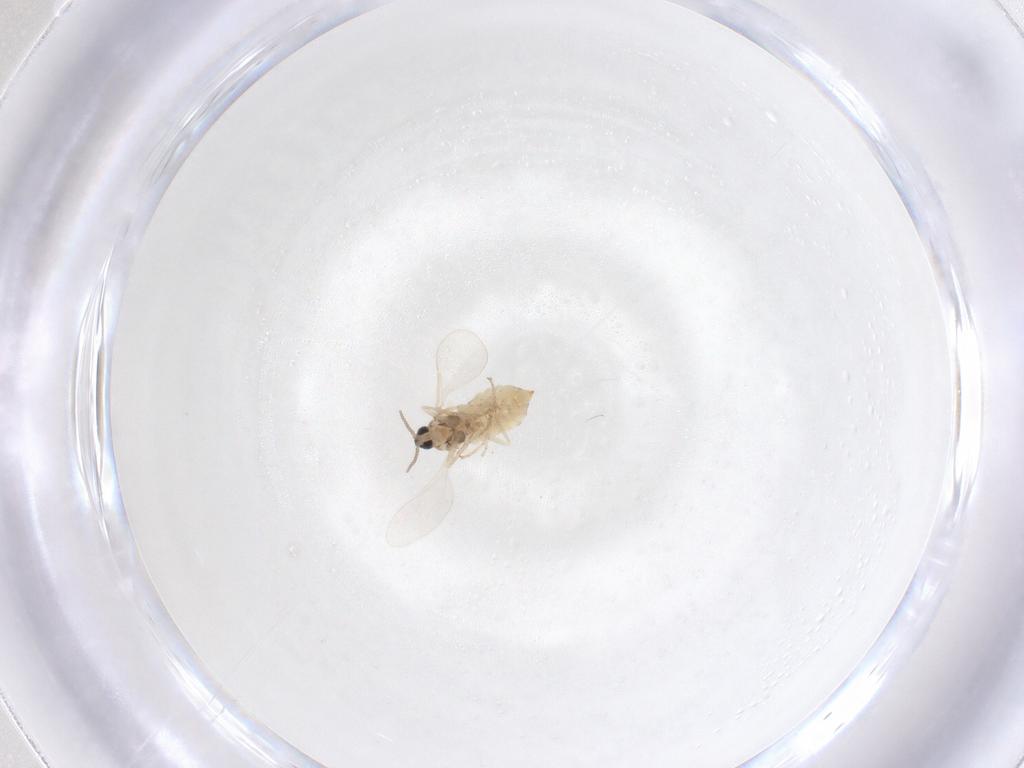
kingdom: Animalia
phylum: Arthropoda
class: Insecta
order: Diptera
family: Cecidomyiidae
